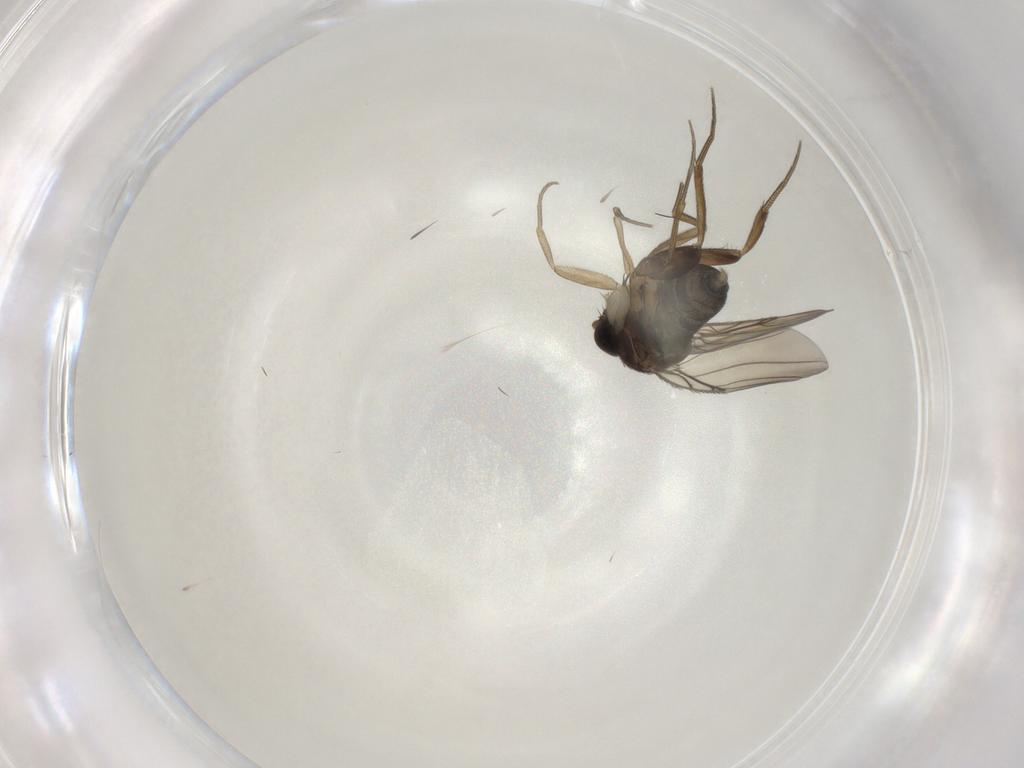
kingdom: Animalia
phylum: Arthropoda
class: Insecta
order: Diptera
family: Phoridae
